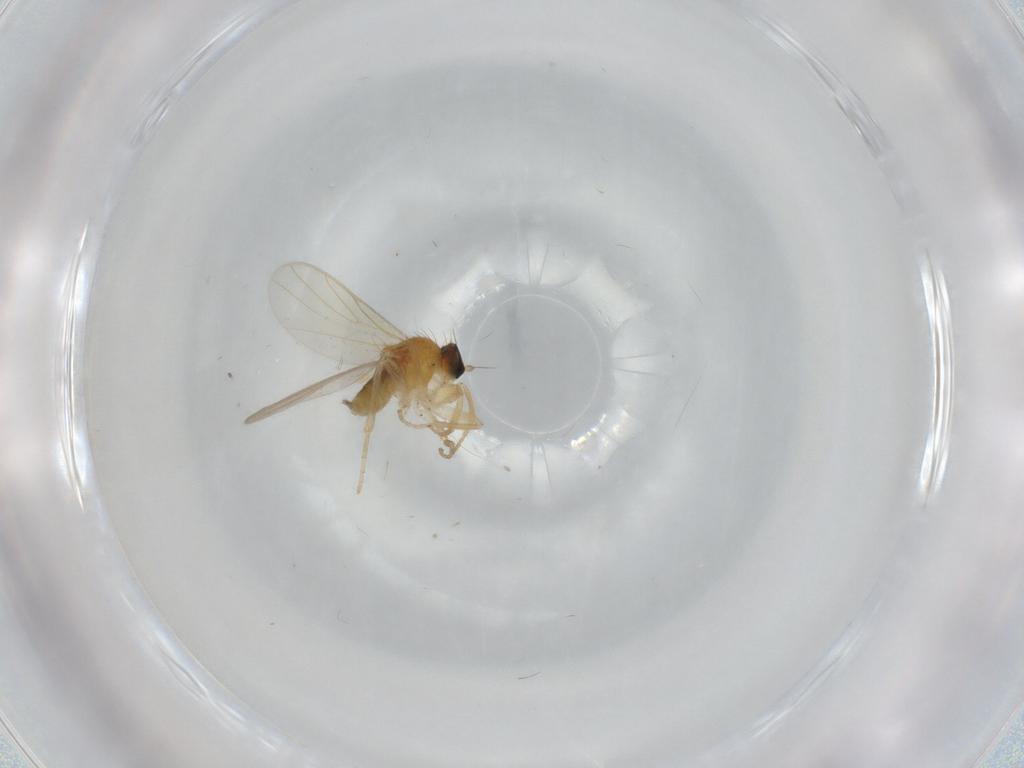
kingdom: Animalia
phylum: Arthropoda
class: Insecta
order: Diptera
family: Hybotidae
